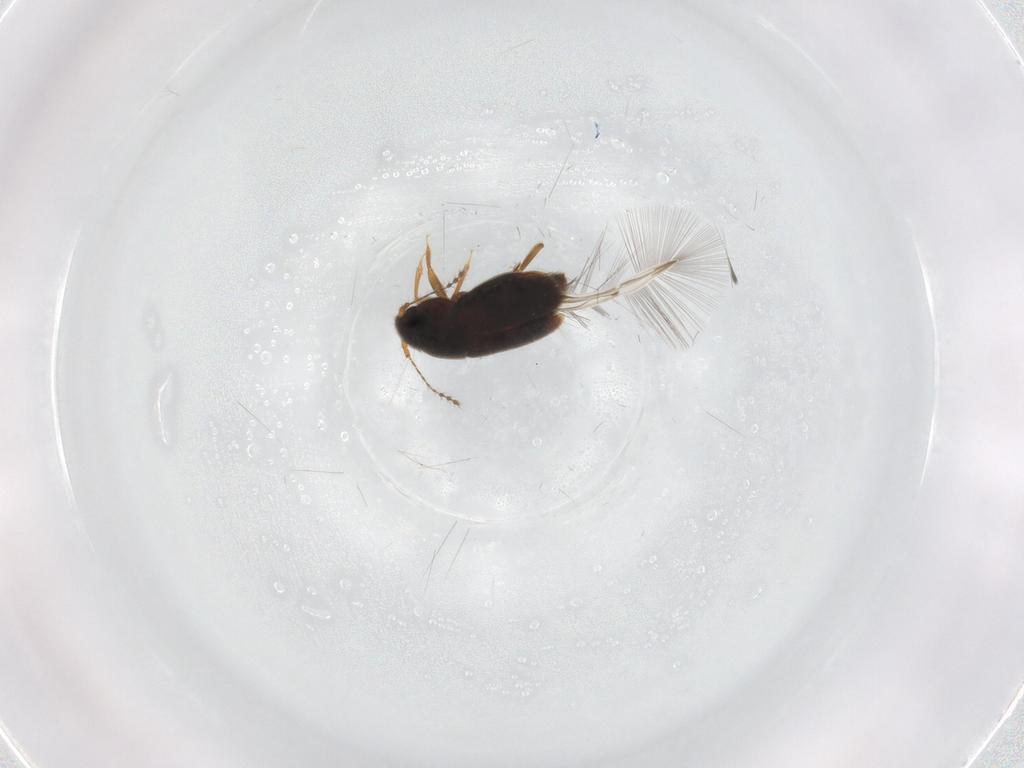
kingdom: Animalia
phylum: Arthropoda
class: Insecta
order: Coleoptera
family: Ptiliidae
